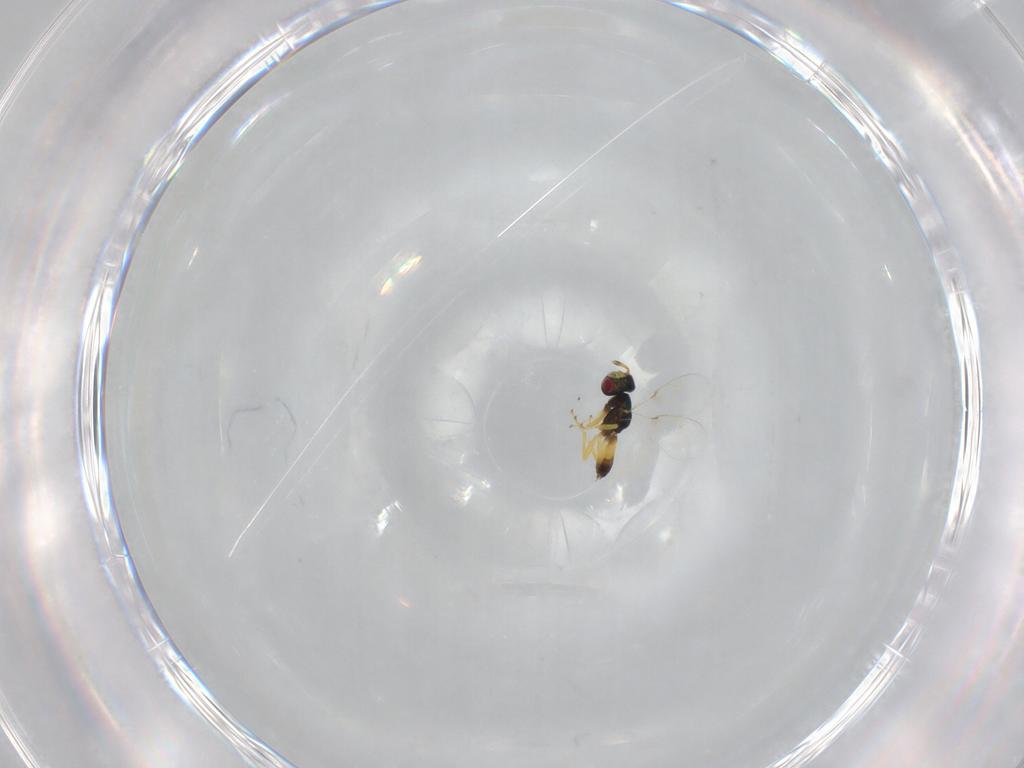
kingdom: Animalia
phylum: Arthropoda
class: Insecta
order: Hymenoptera
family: Pteromalidae
